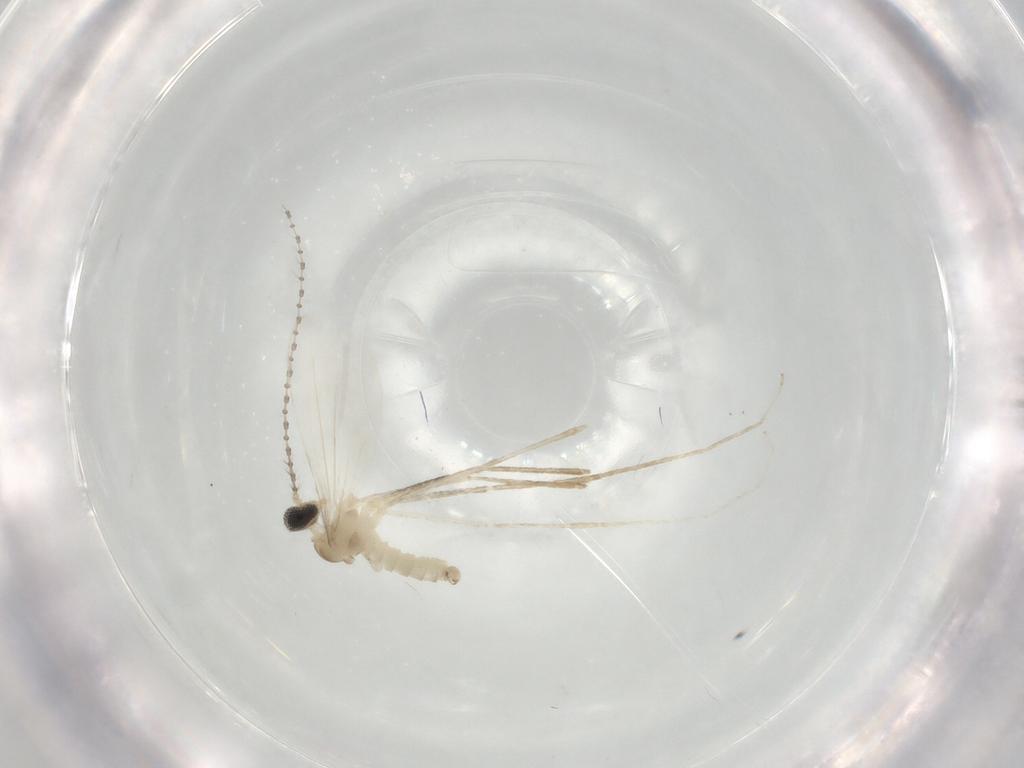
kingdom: Animalia
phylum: Arthropoda
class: Insecta
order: Diptera
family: Cecidomyiidae
